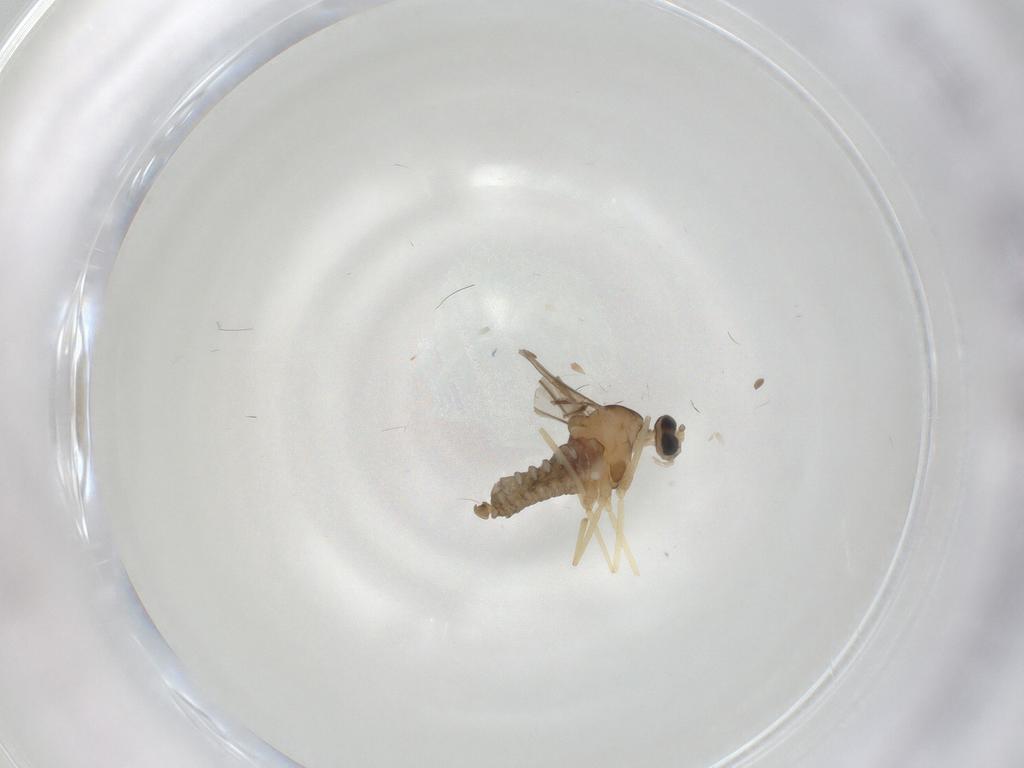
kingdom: Animalia
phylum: Arthropoda
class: Insecta
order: Diptera
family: Cecidomyiidae
